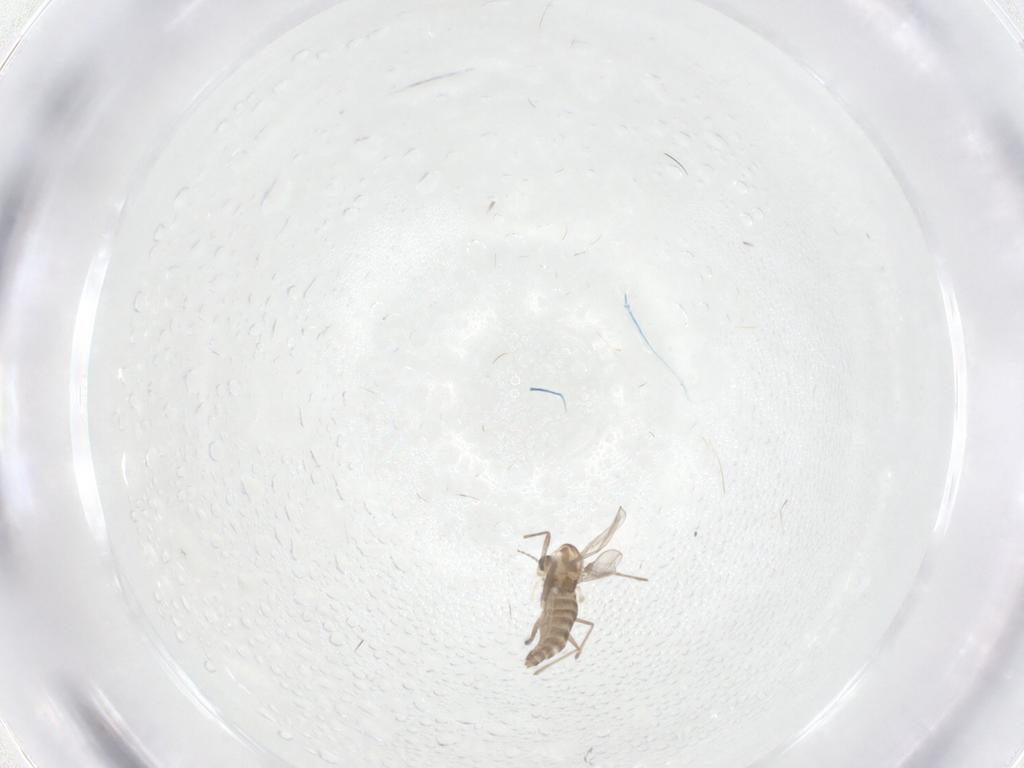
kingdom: Animalia
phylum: Arthropoda
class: Insecta
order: Diptera
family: Chironomidae
